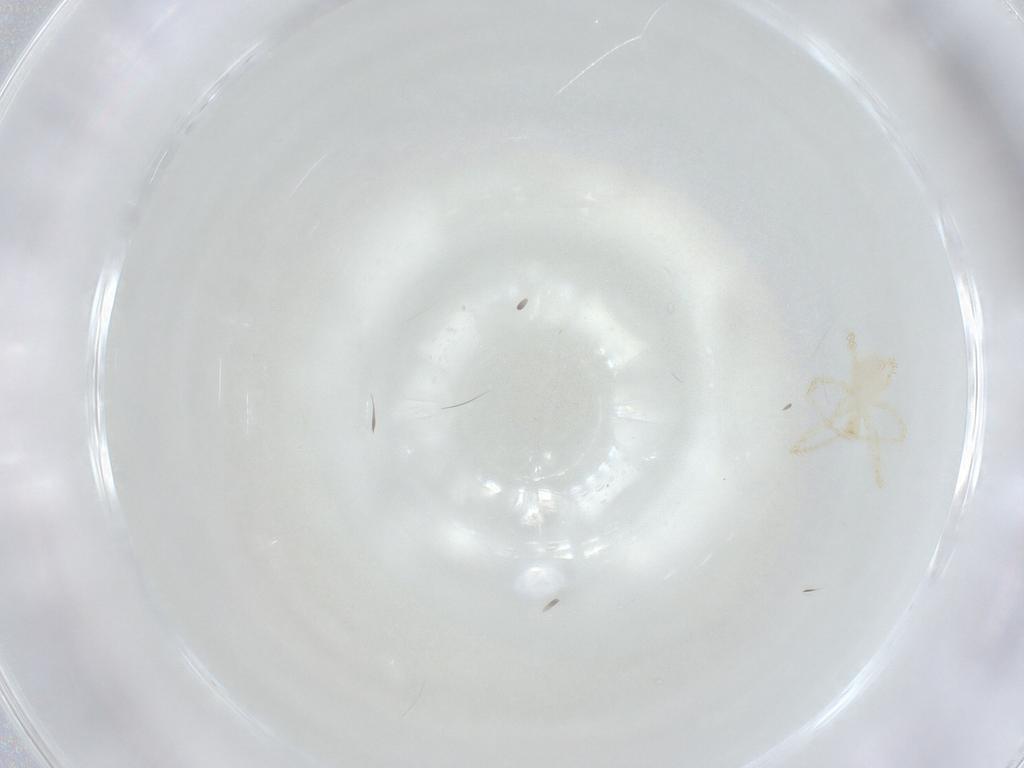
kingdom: Animalia
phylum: Arthropoda
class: Arachnida
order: Trombidiformes
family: Erythraeidae
